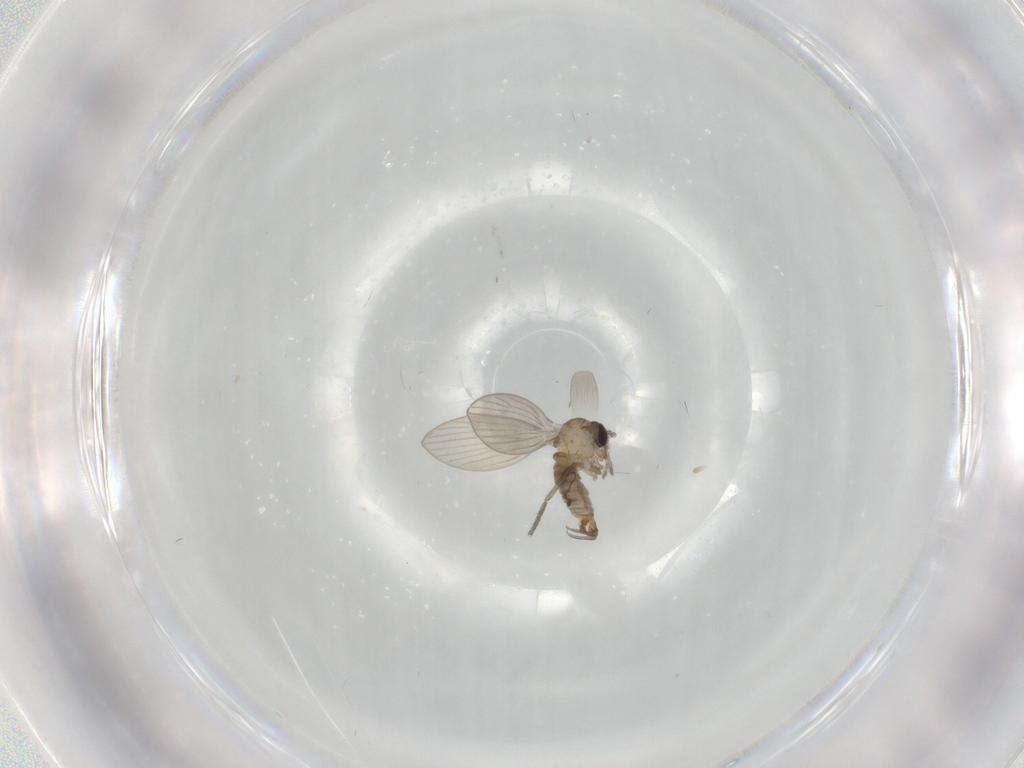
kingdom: Animalia
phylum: Arthropoda
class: Insecta
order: Diptera
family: Psychodidae
